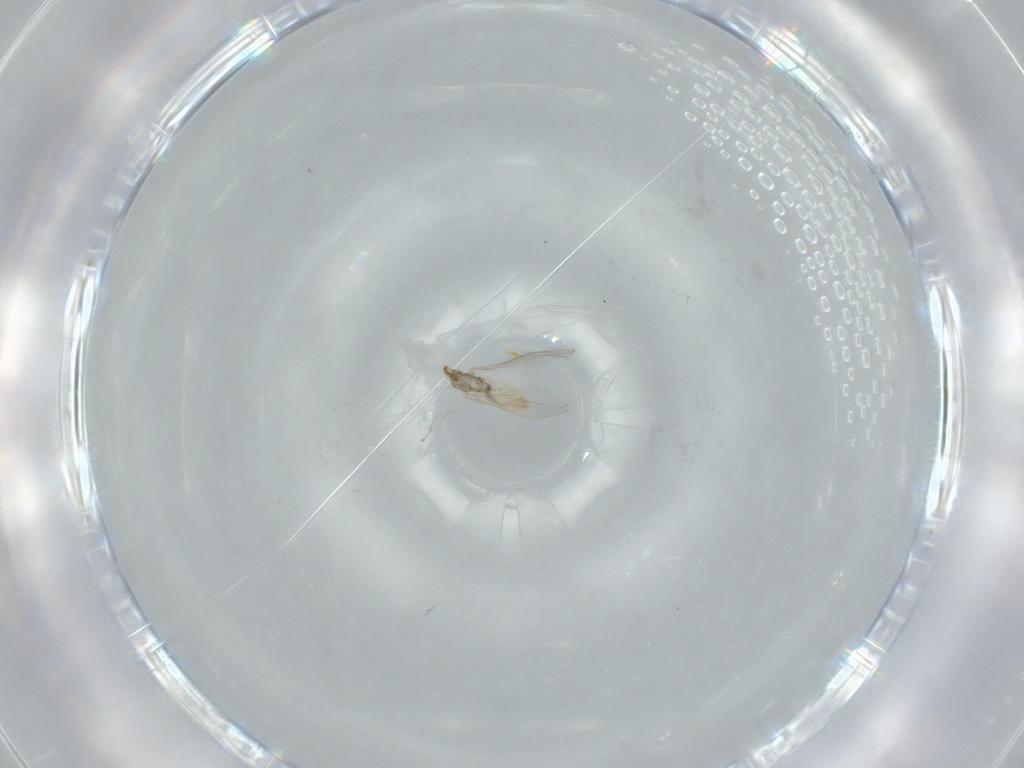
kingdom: Animalia
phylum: Arthropoda
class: Insecta
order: Diptera
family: Cecidomyiidae
